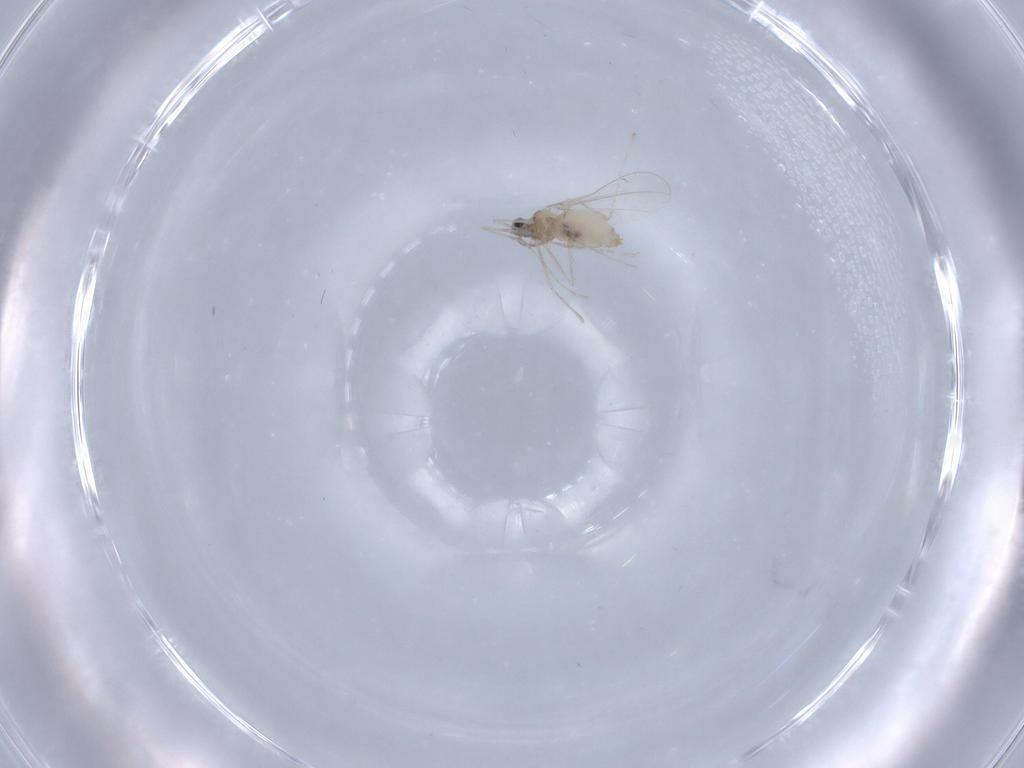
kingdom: Animalia
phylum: Arthropoda
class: Insecta
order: Diptera
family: Cecidomyiidae
